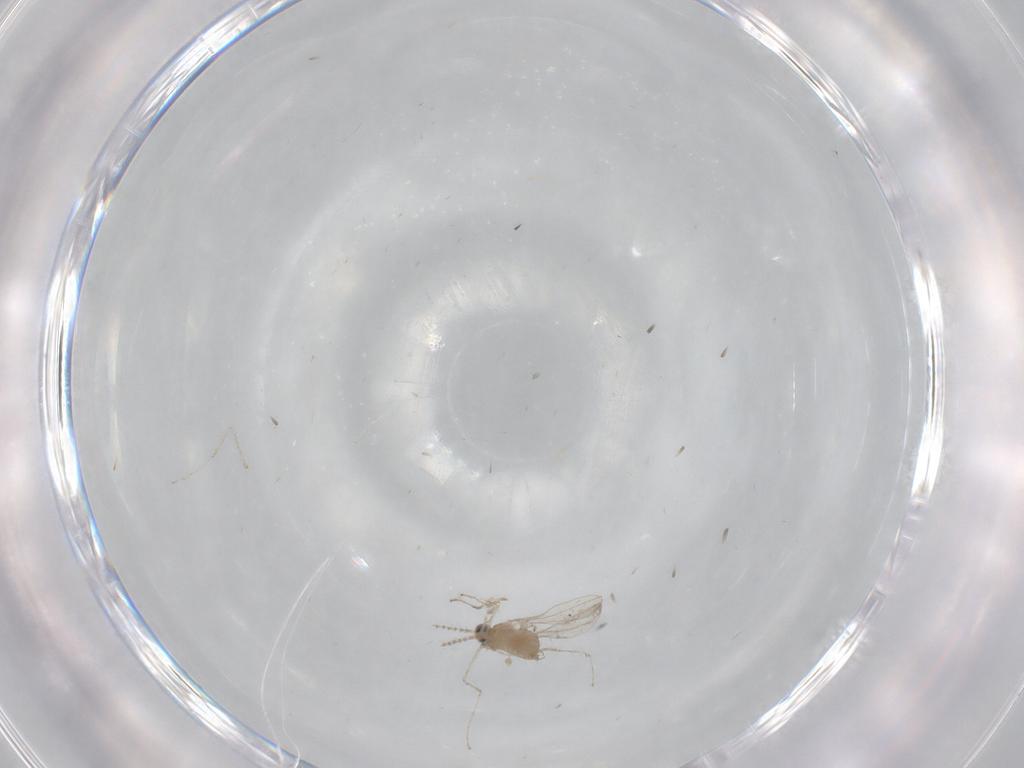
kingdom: Animalia
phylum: Arthropoda
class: Insecta
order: Diptera
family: Cecidomyiidae
